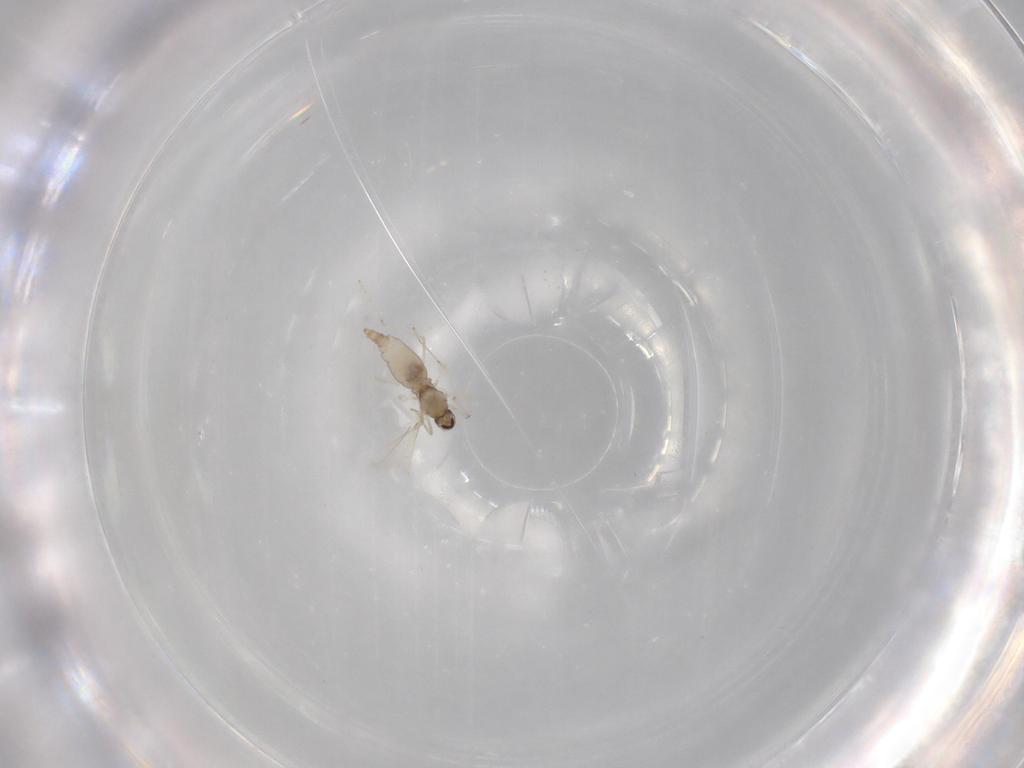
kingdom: Animalia
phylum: Arthropoda
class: Insecta
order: Diptera
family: Cecidomyiidae
